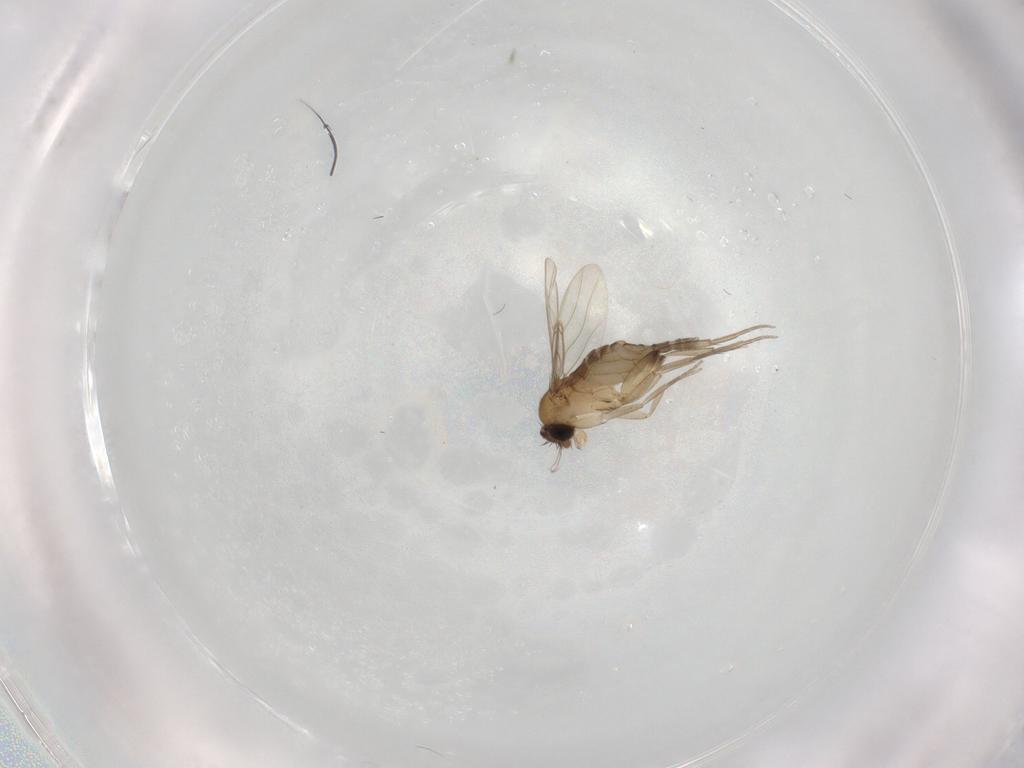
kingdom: Animalia
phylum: Arthropoda
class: Insecta
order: Diptera
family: Phoridae
